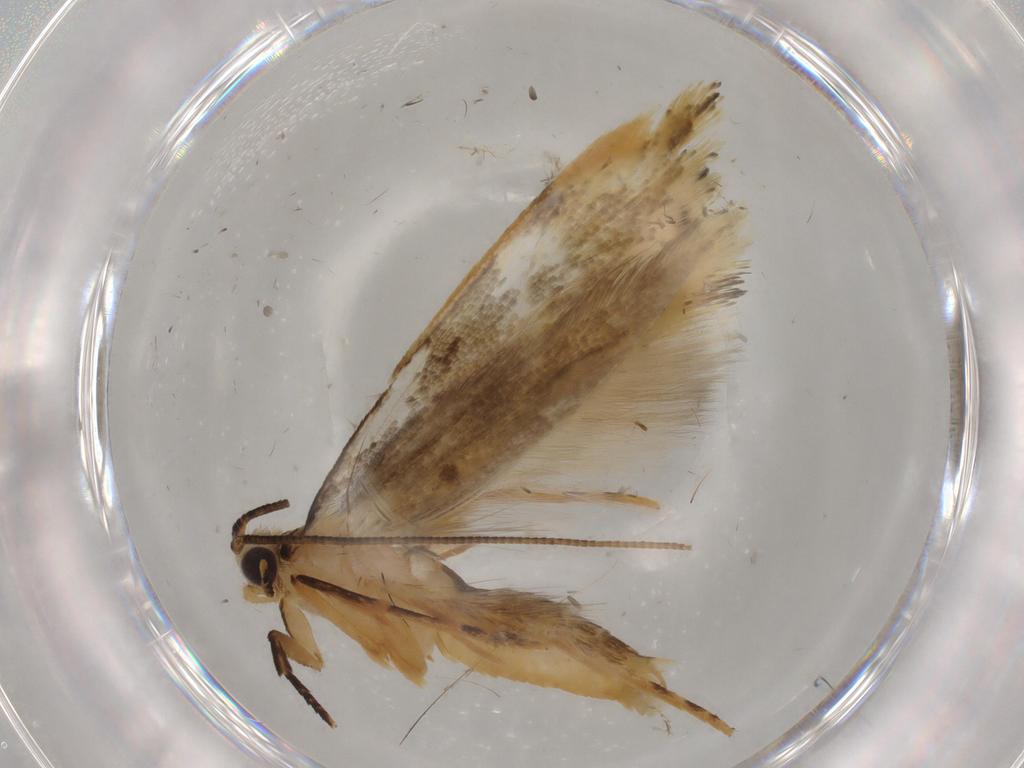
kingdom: Animalia
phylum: Arthropoda
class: Insecta
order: Lepidoptera
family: Tineidae
